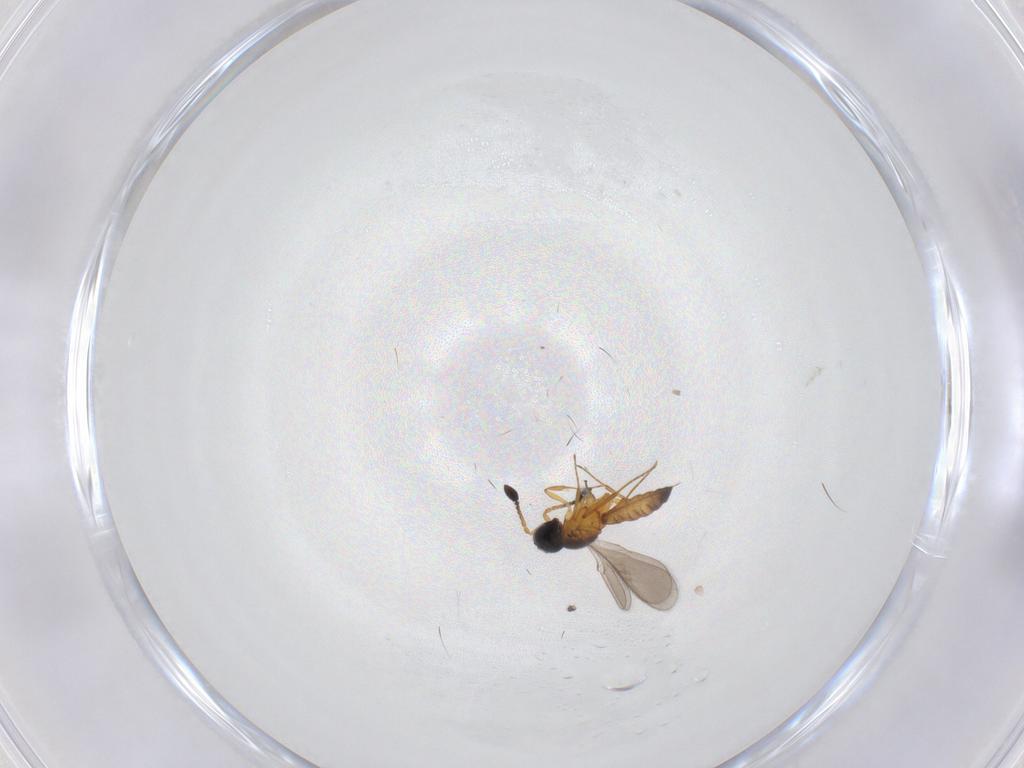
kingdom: Animalia
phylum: Arthropoda
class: Insecta
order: Hymenoptera
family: Scelionidae
